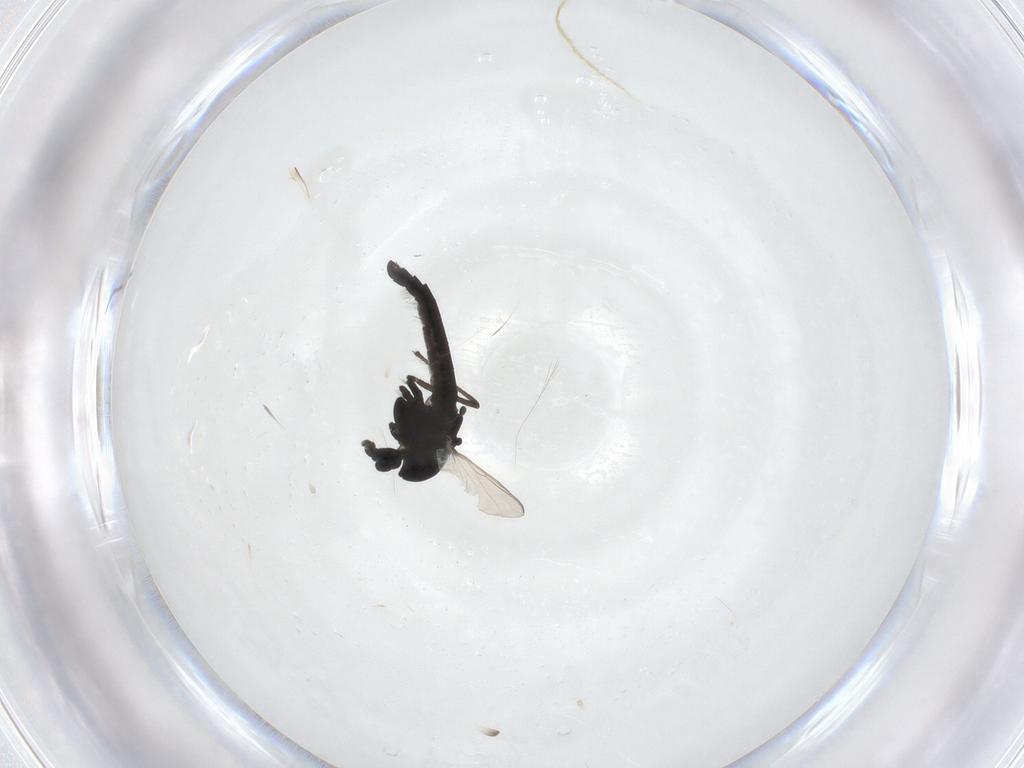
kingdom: Animalia
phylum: Arthropoda
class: Insecta
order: Diptera
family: Chironomidae
